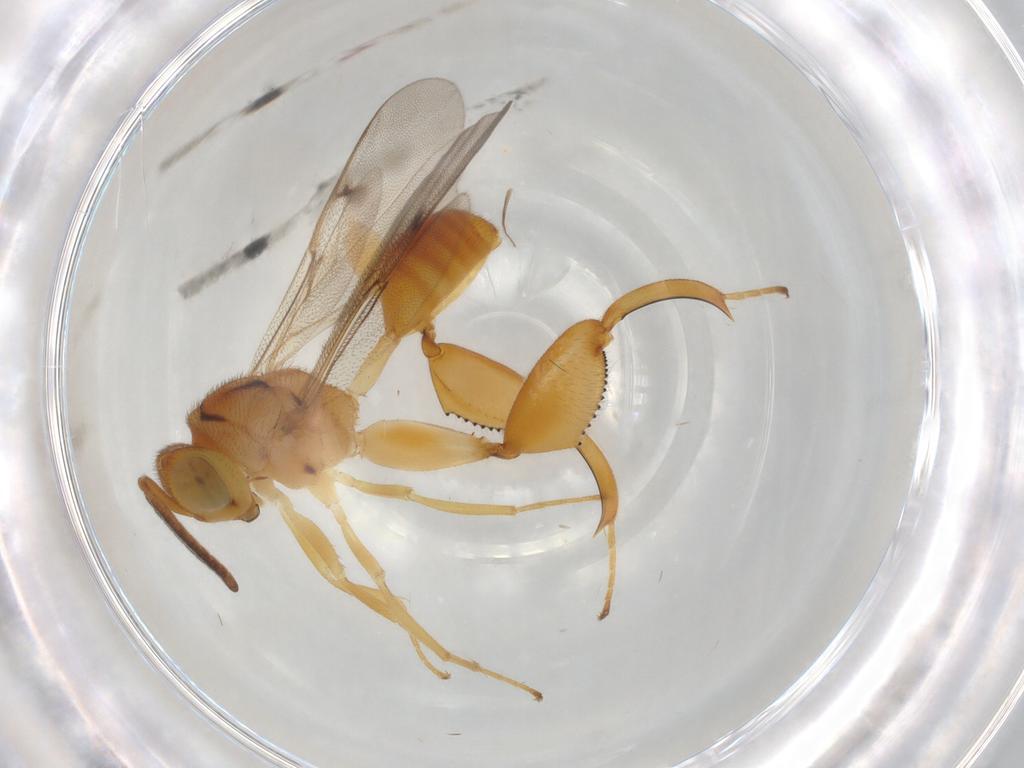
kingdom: Animalia
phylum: Arthropoda
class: Insecta
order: Hymenoptera
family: Chalcididae
